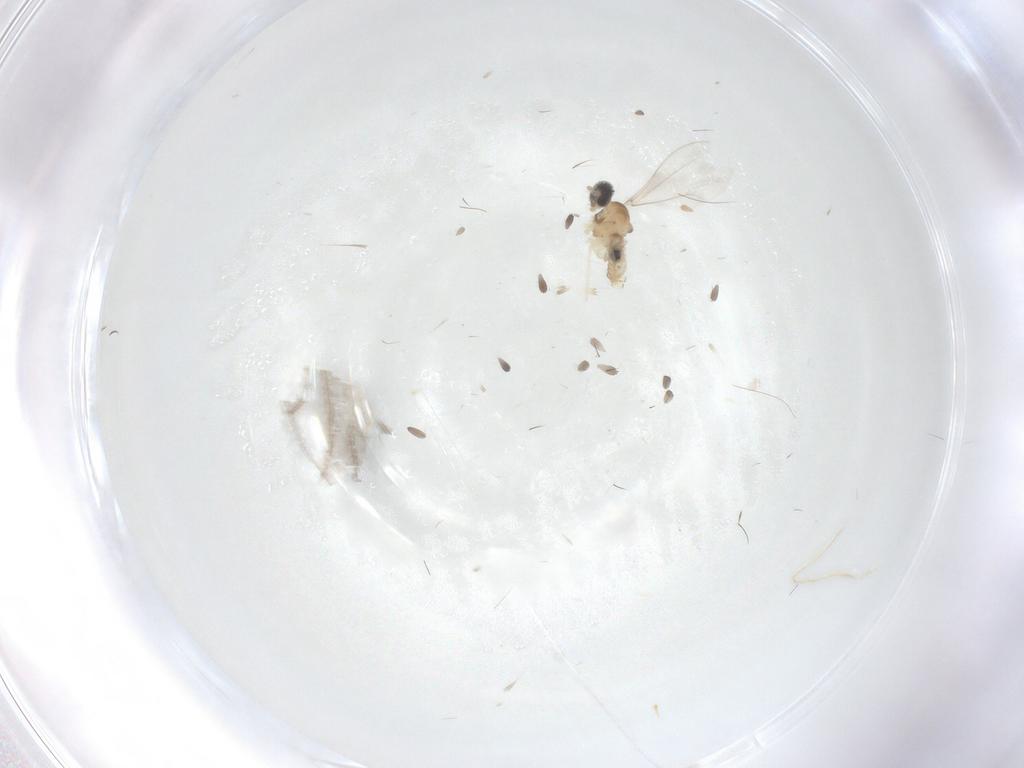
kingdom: Animalia
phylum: Arthropoda
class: Insecta
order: Diptera
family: Cecidomyiidae
